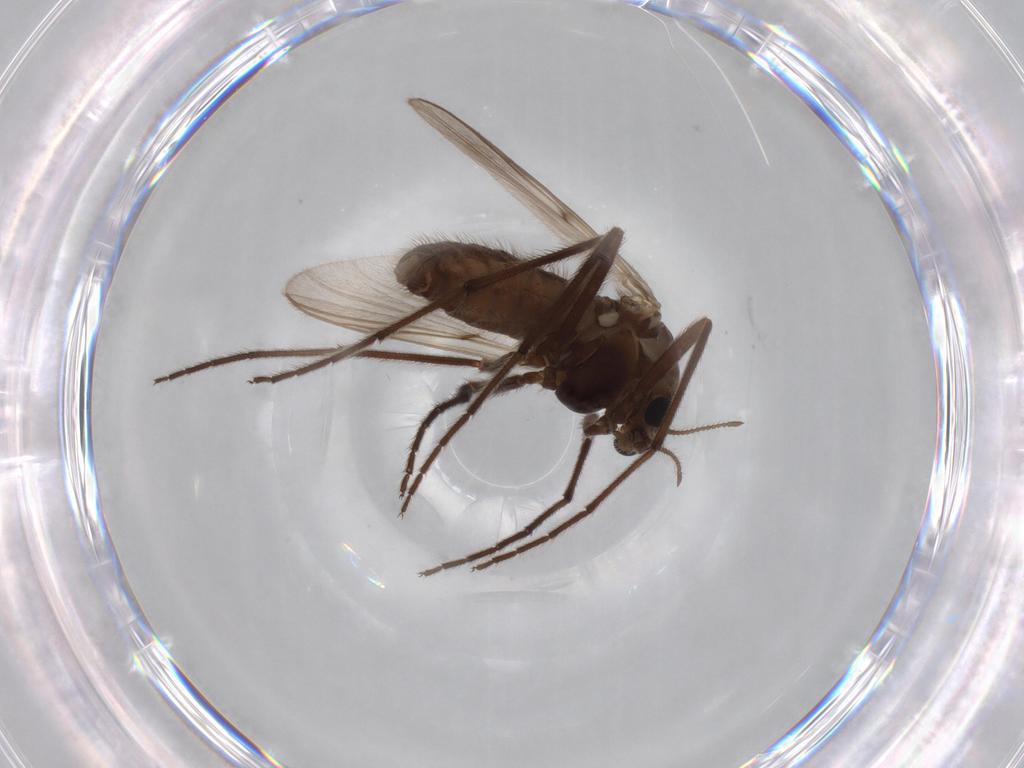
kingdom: Animalia
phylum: Arthropoda
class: Insecta
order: Diptera
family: Chironomidae
